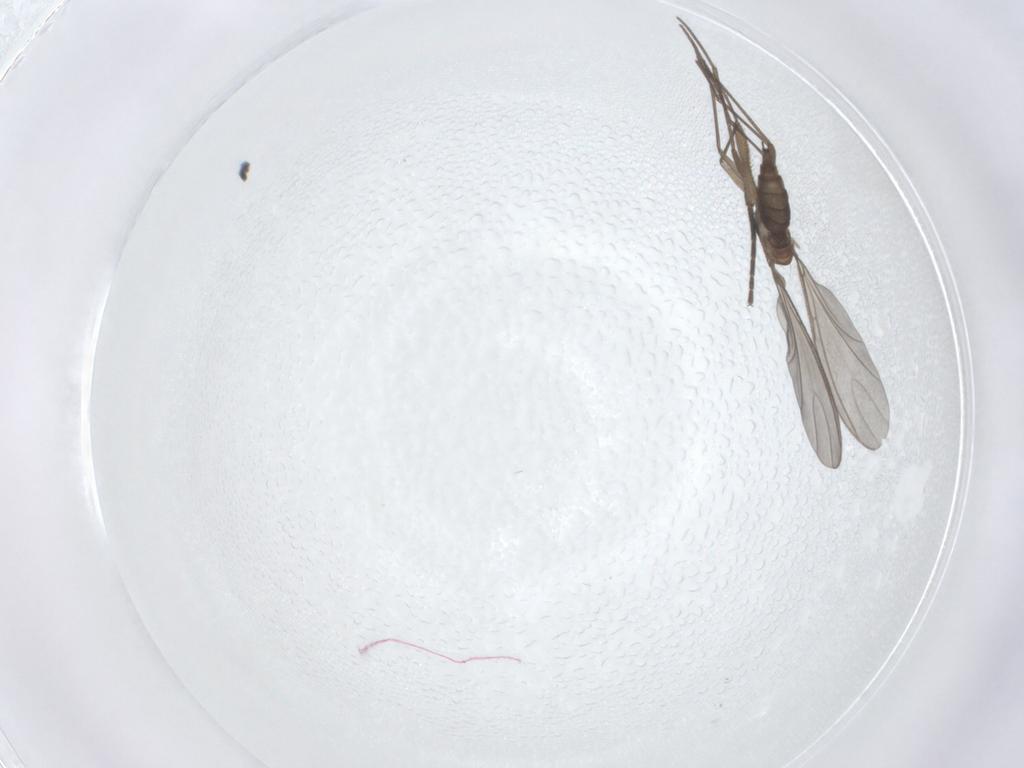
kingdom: Animalia
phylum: Arthropoda
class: Insecta
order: Diptera
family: Sciaridae
